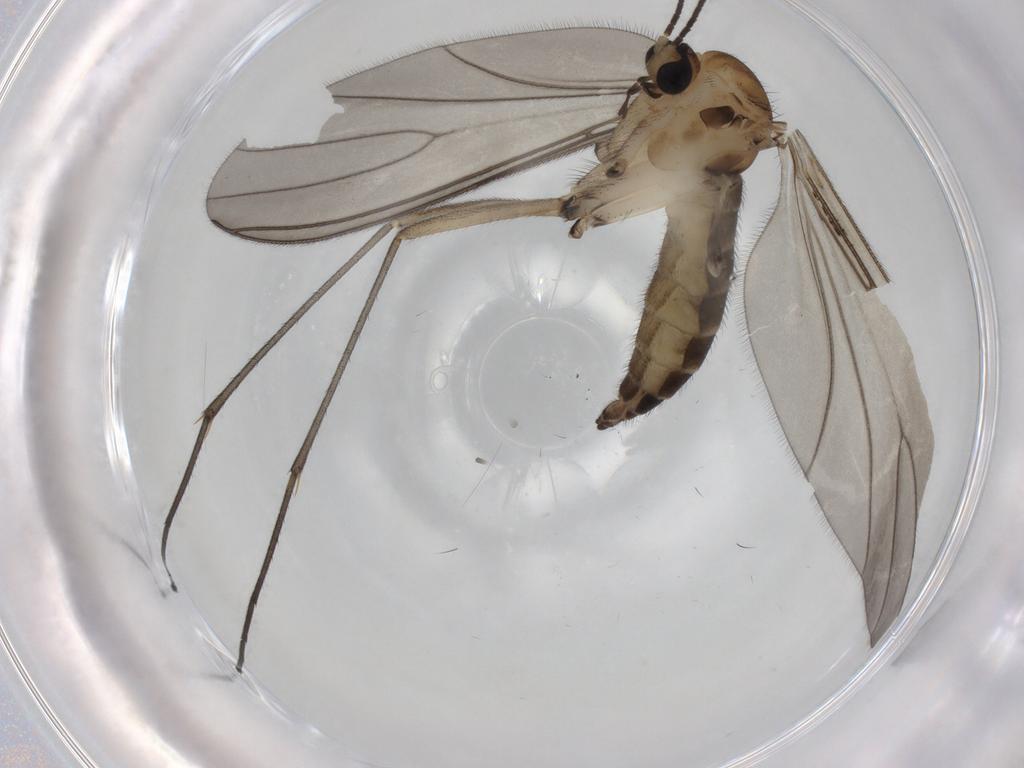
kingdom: Animalia
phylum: Arthropoda
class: Insecta
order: Diptera
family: Sciaridae
